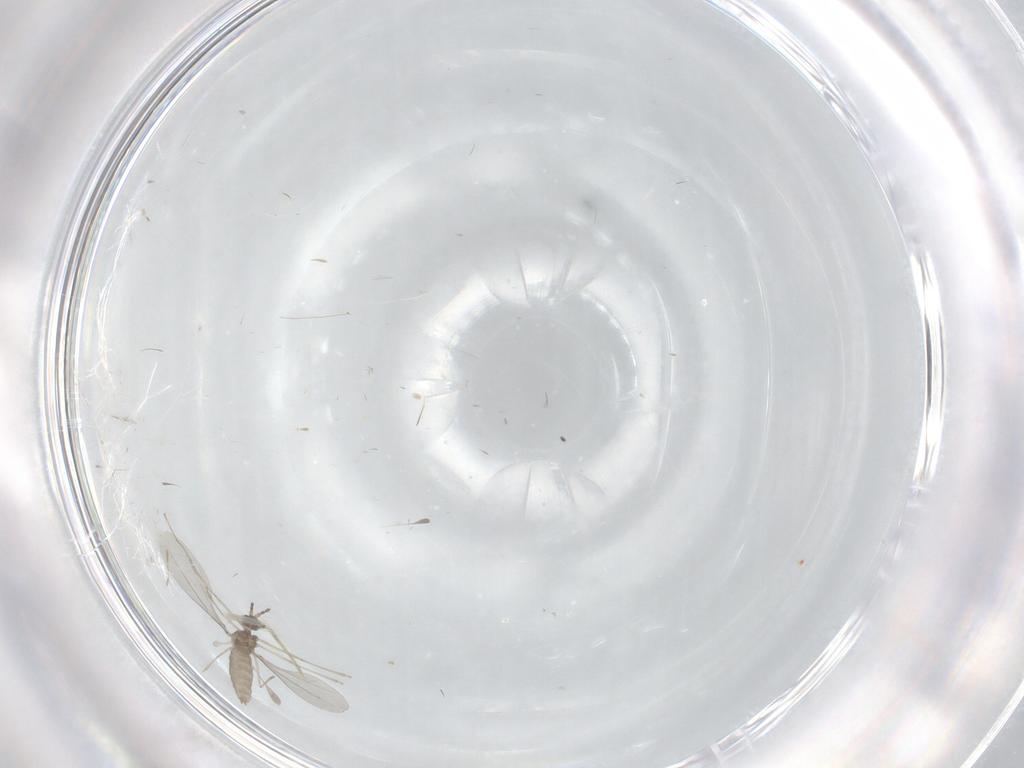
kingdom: Animalia
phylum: Arthropoda
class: Insecta
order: Diptera
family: Cecidomyiidae
